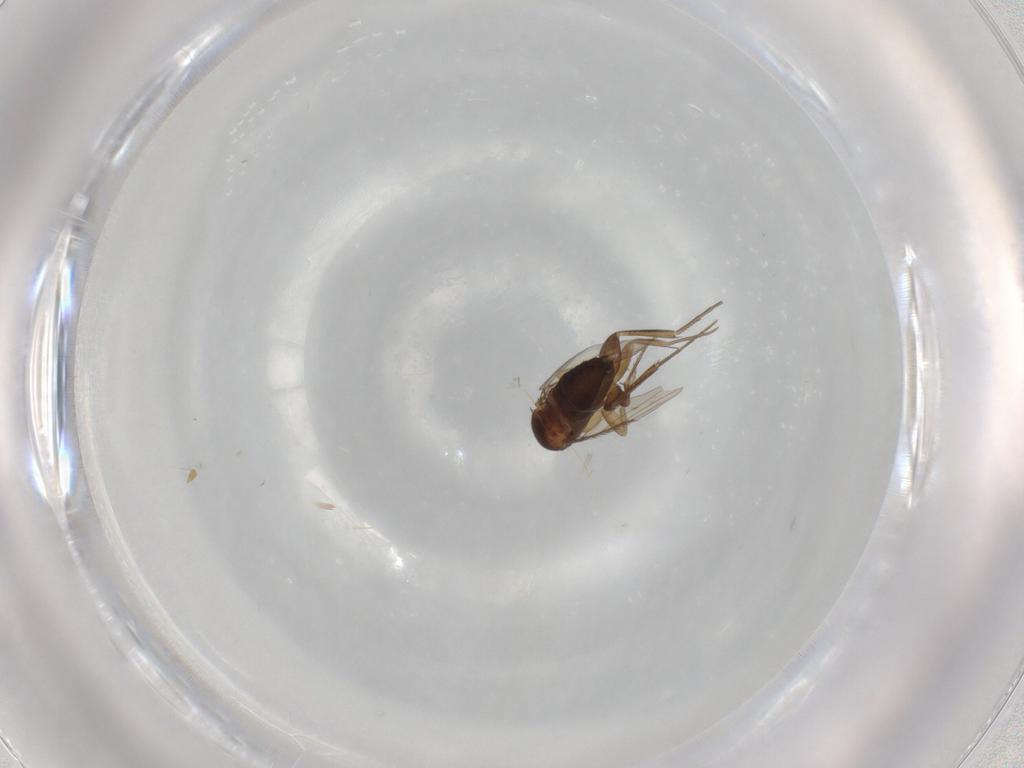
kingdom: Animalia
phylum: Arthropoda
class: Insecta
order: Diptera
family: Phoridae
